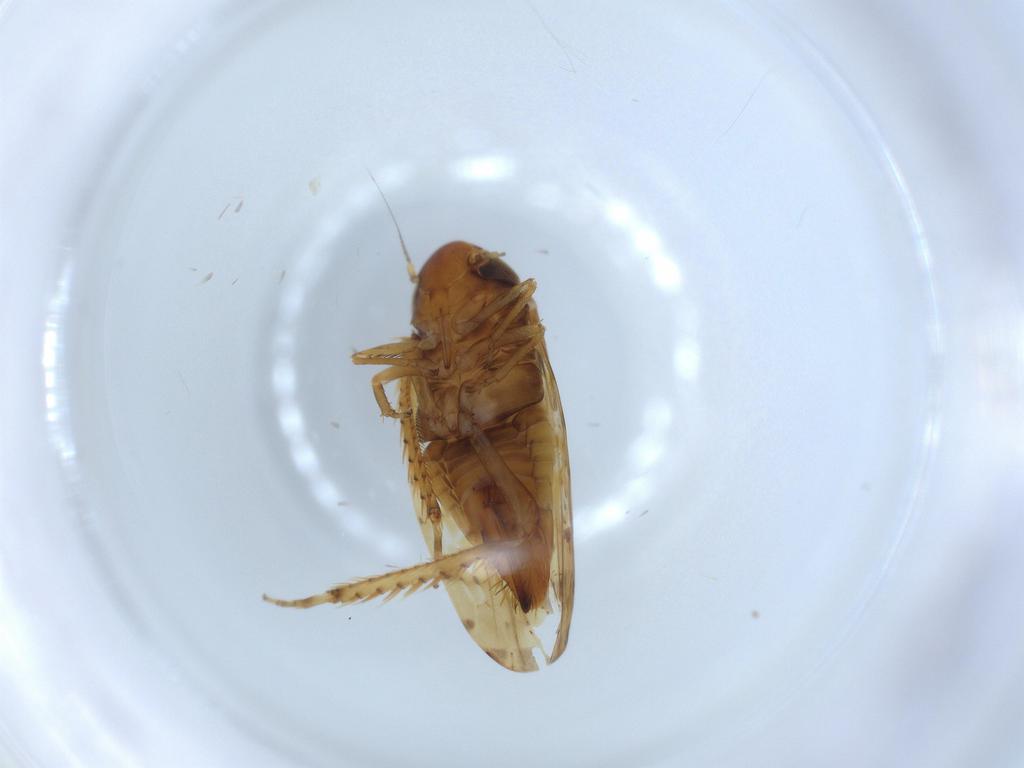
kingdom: Animalia
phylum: Arthropoda
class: Insecta
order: Hemiptera
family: Cicadellidae
